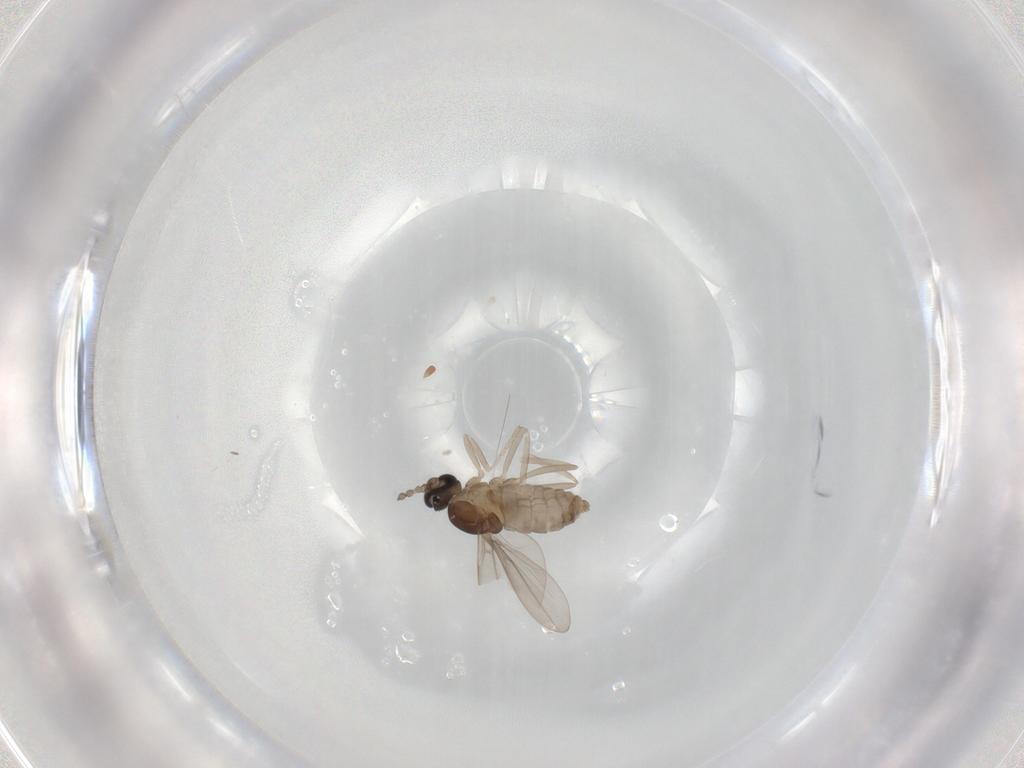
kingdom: Animalia
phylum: Arthropoda
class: Insecta
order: Diptera
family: Cecidomyiidae
